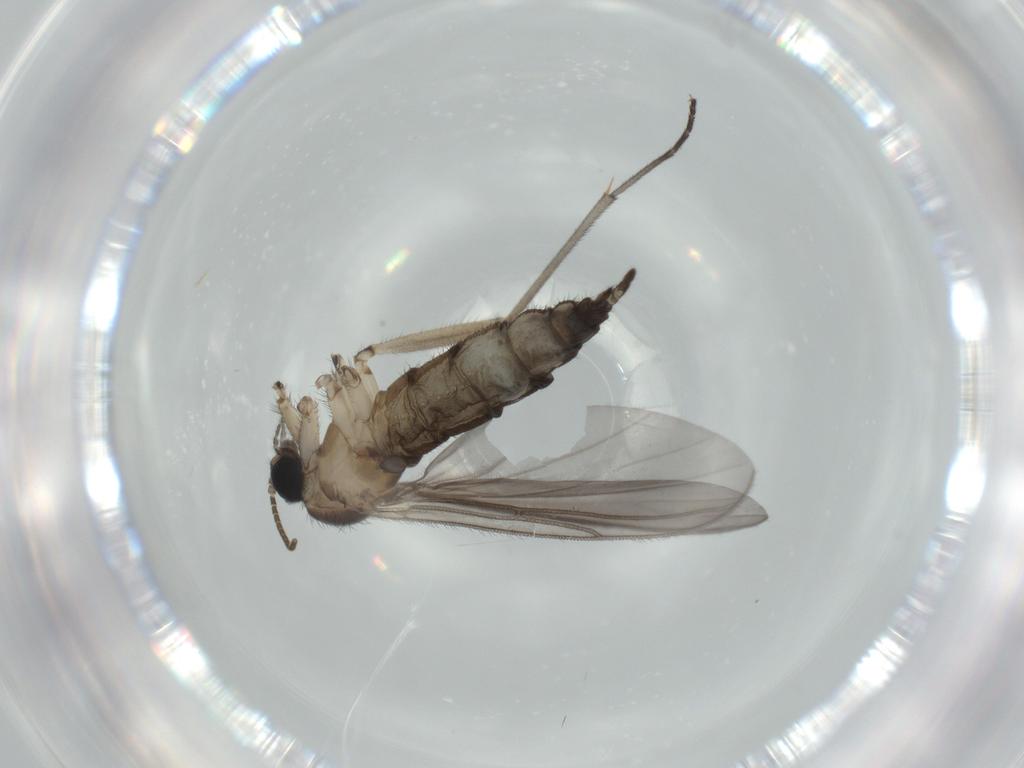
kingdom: Animalia
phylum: Arthropoda
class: Insecta
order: Diptera
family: Sciaridae
